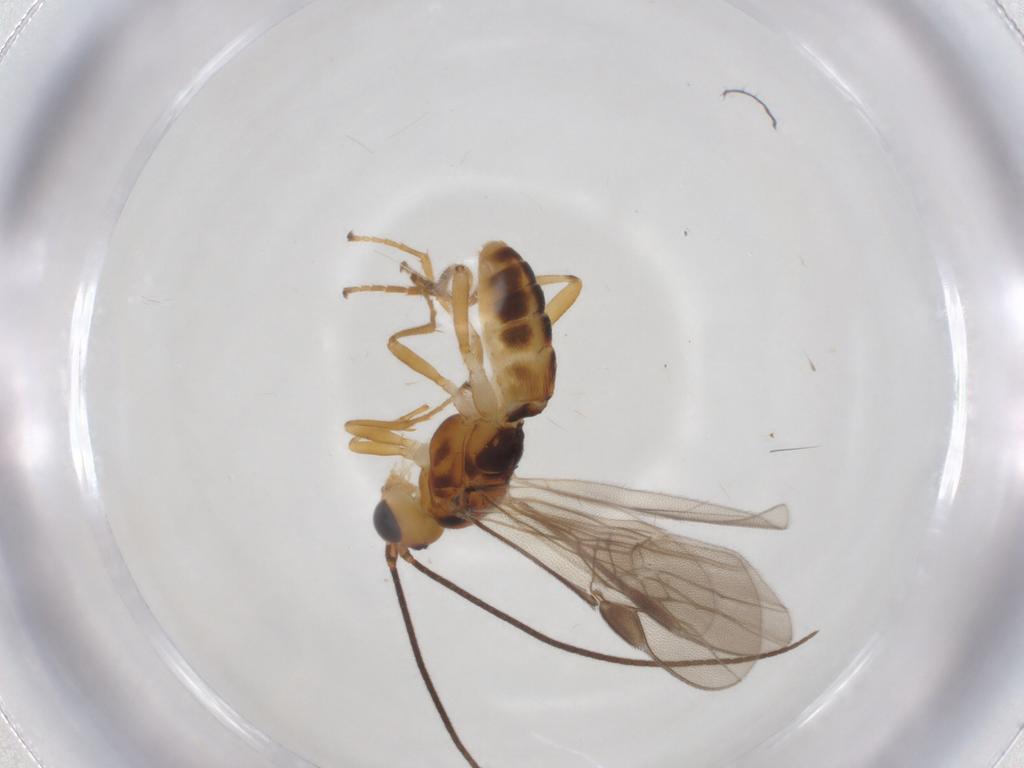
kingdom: Animalia
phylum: Arthropoda
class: Insecta
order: Hymenoptera
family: Braconidae
